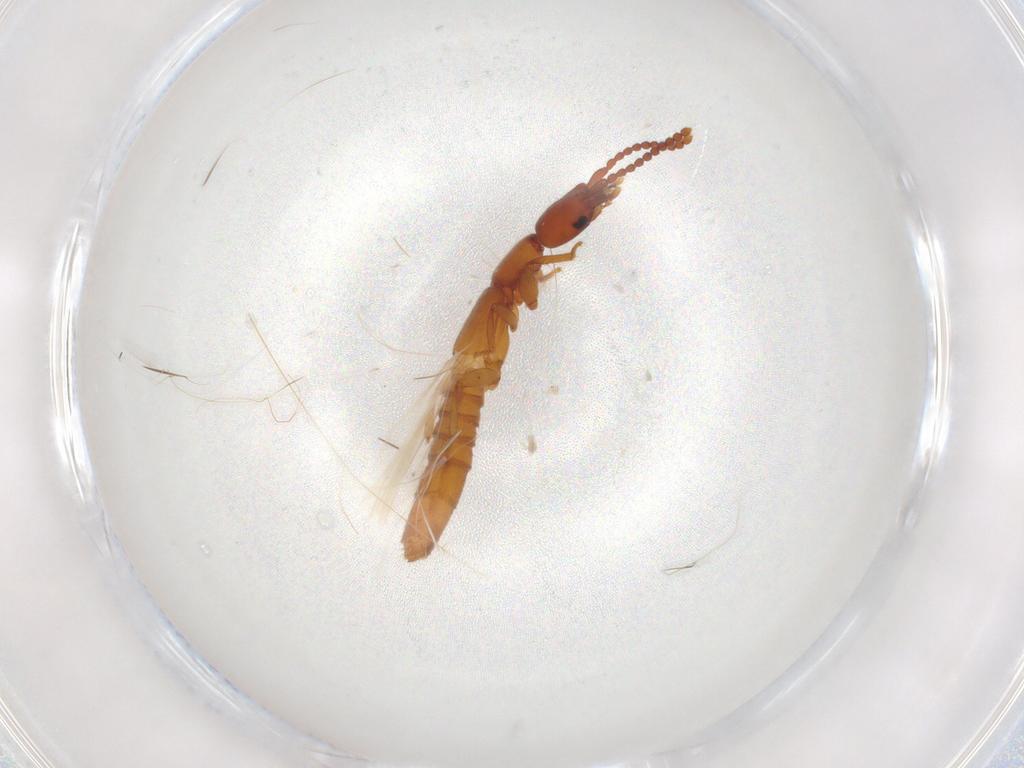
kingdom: Animalia
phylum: Arthropoda
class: Insecta
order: Coleoptera
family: Staphylinidae
